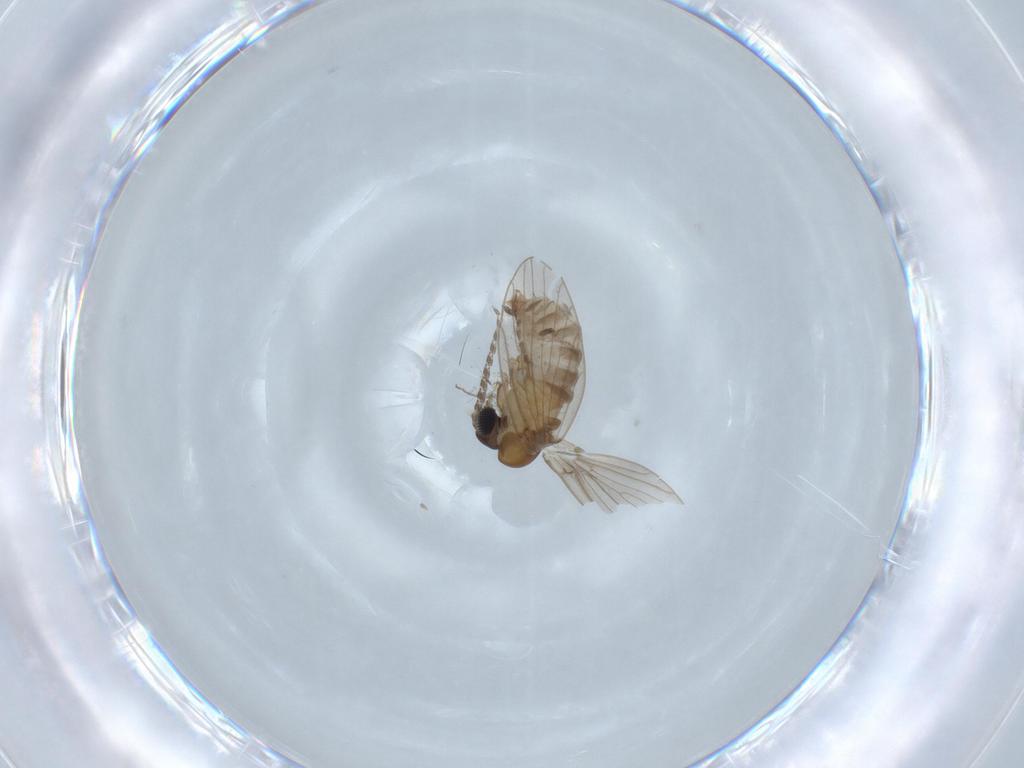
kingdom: Animalia
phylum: Arthropoda
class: Insecta
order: Diptera
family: Cecidomyiidae
